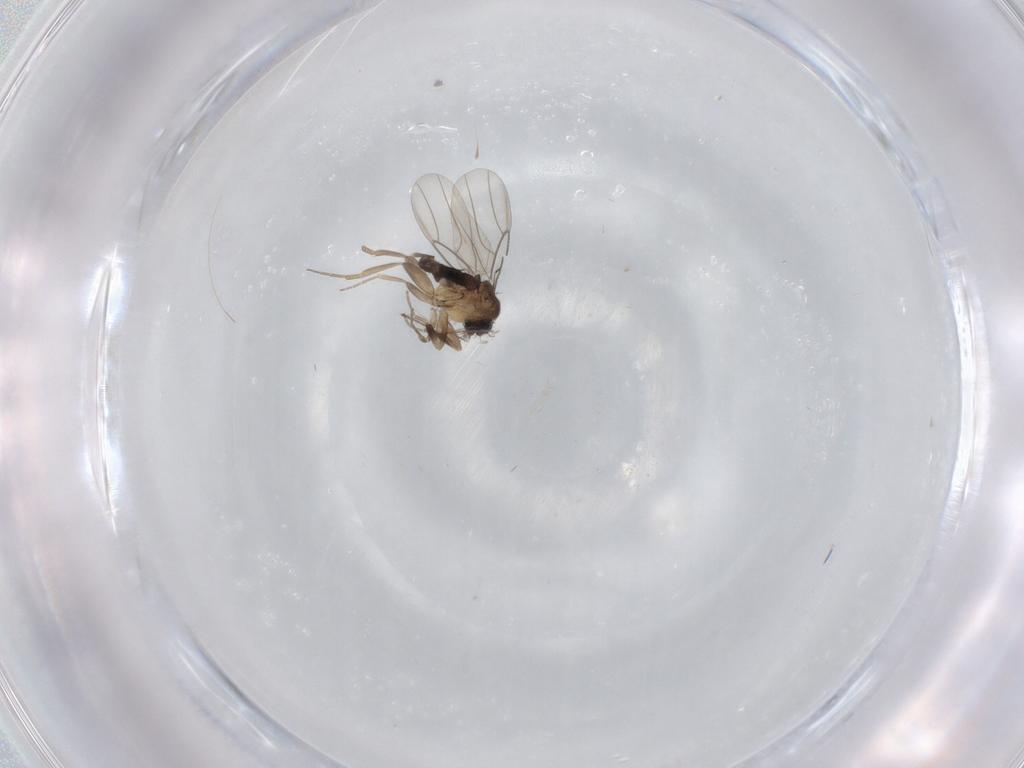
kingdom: Animalia
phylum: Arthropoda
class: Insecta
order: Diptera
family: Phoridae
